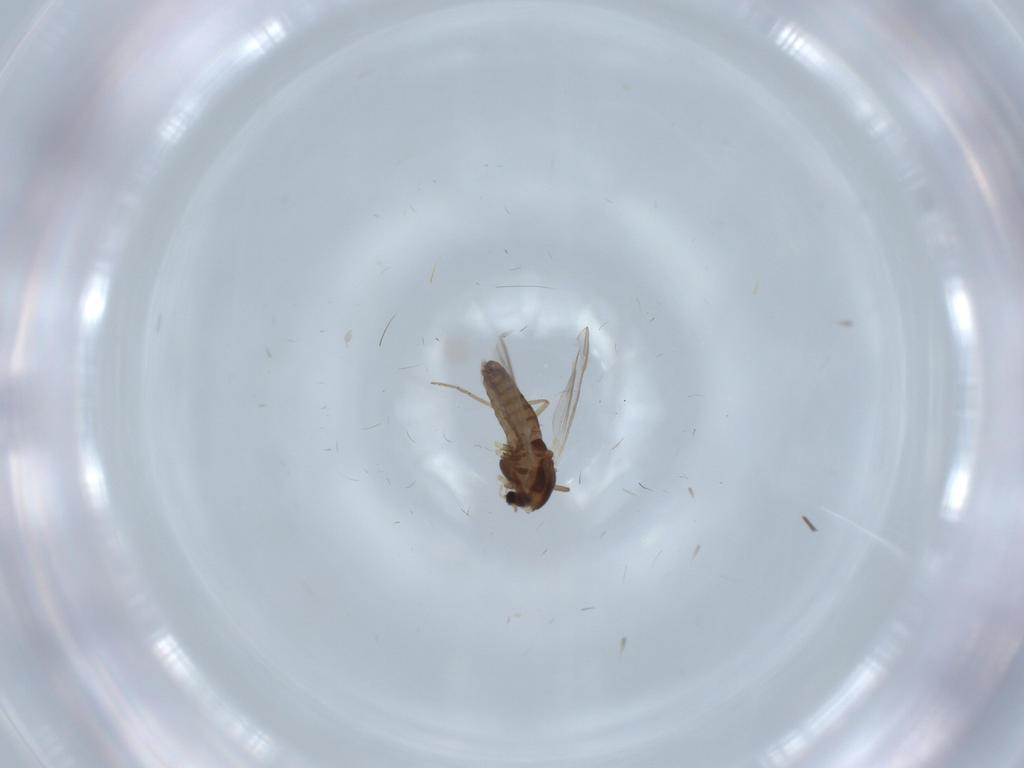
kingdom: Animalia
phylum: Arthropoda
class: Insecta
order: Diptera
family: Chironomidae
